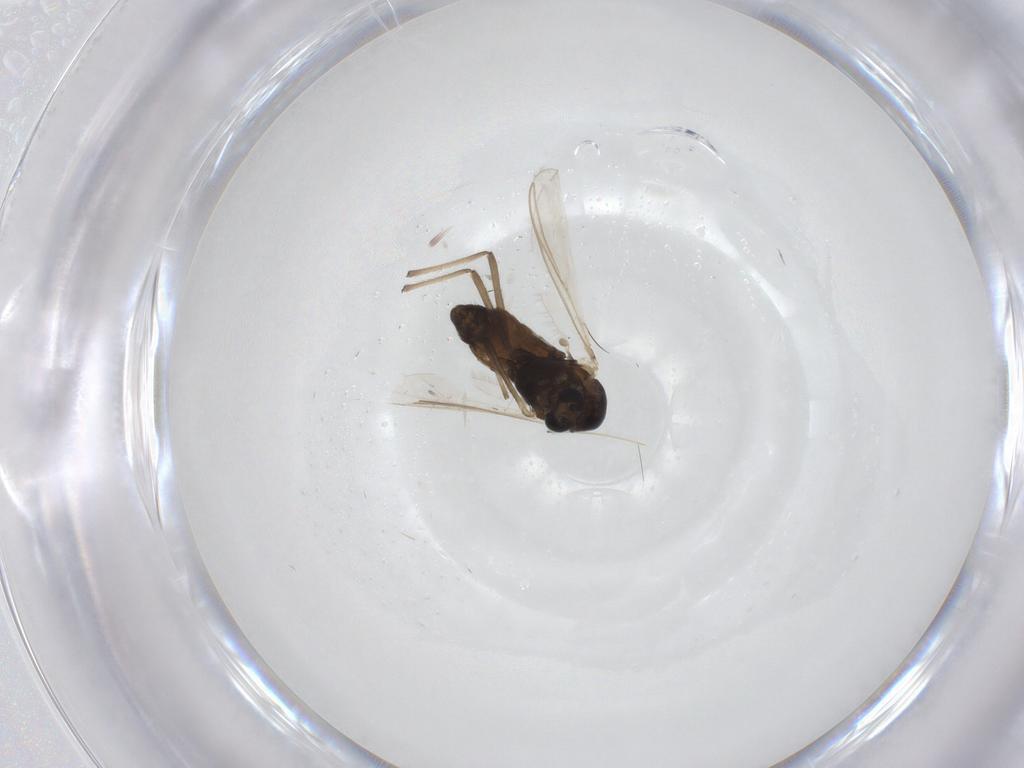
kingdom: Animalia
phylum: Arthropoda
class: Insecta
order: Diptera
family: Chironomidae
